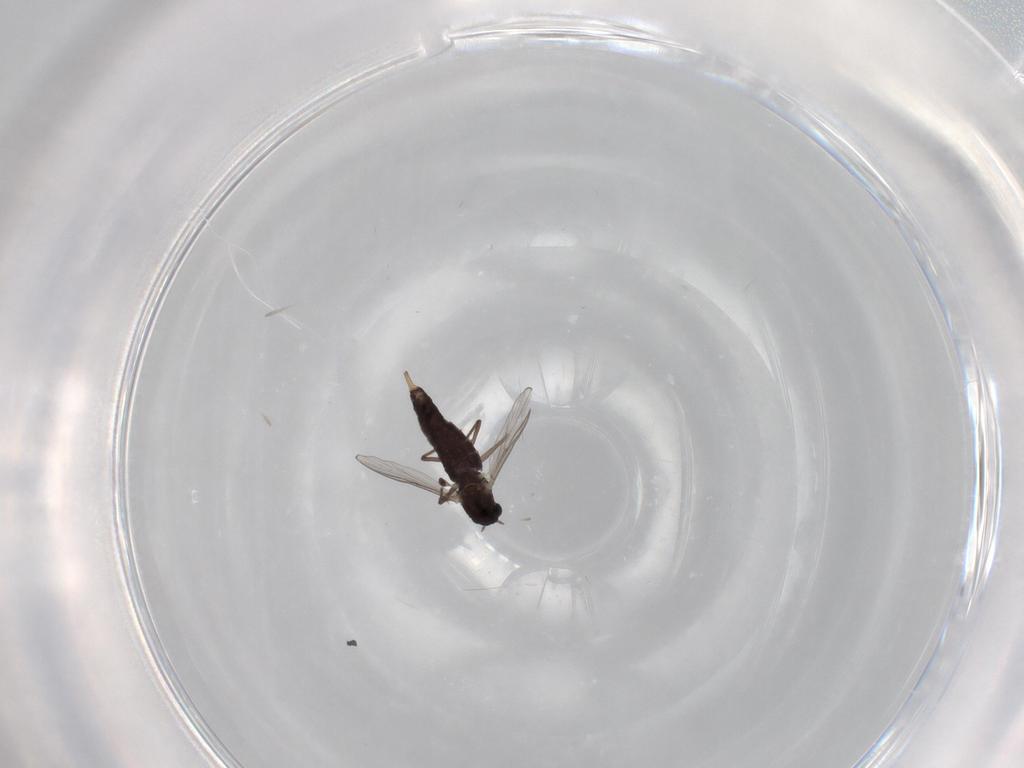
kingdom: Animalia
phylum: Arthropoda
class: Insecta
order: Diptera
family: Chironomidae
